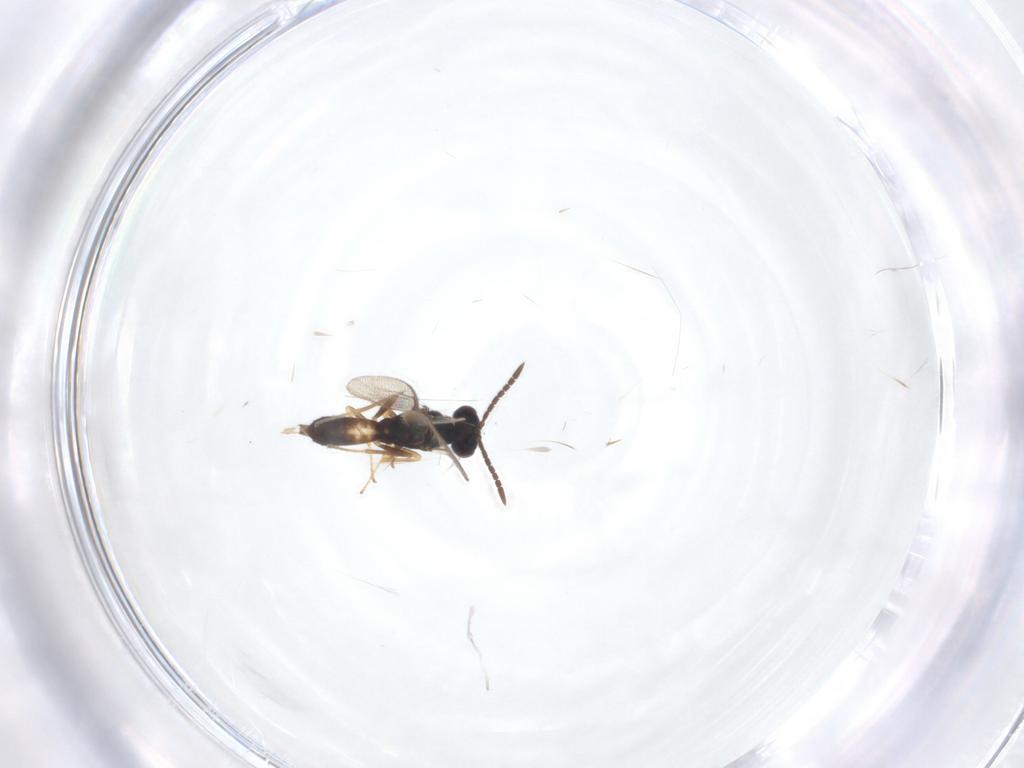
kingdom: Animalia
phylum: Arthropoda
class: Insecta
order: Hymenoptera
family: Pteromalidae
